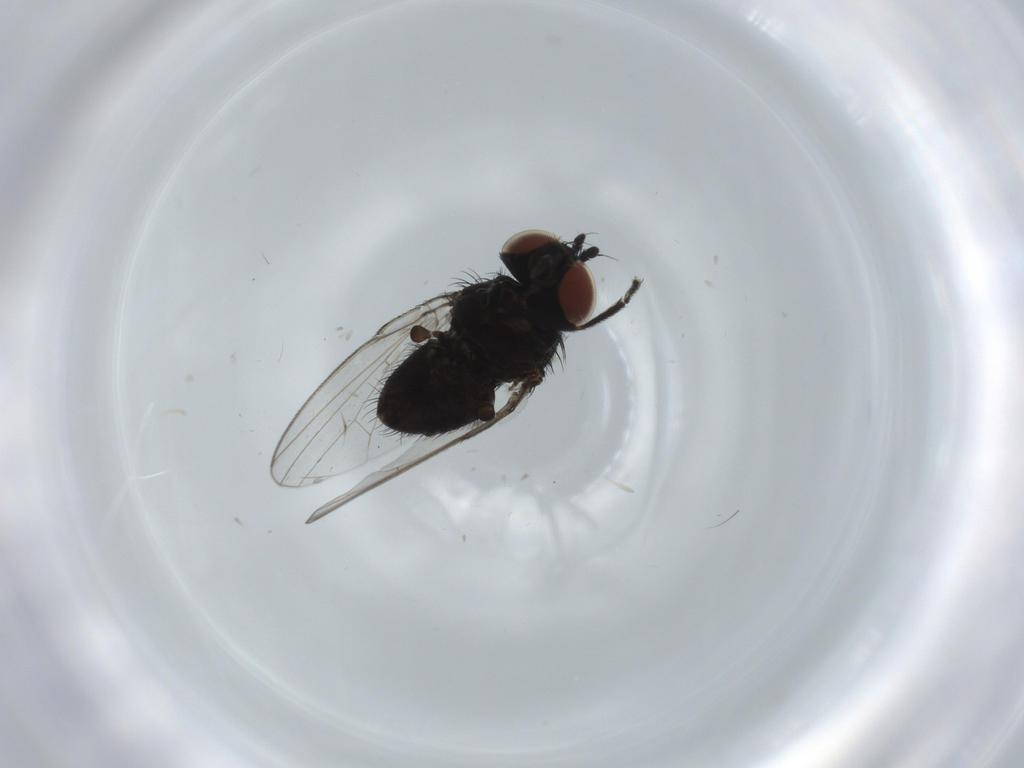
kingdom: Animalia
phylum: Arthropoda
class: Insecta
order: Diptera
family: Milichiidae
